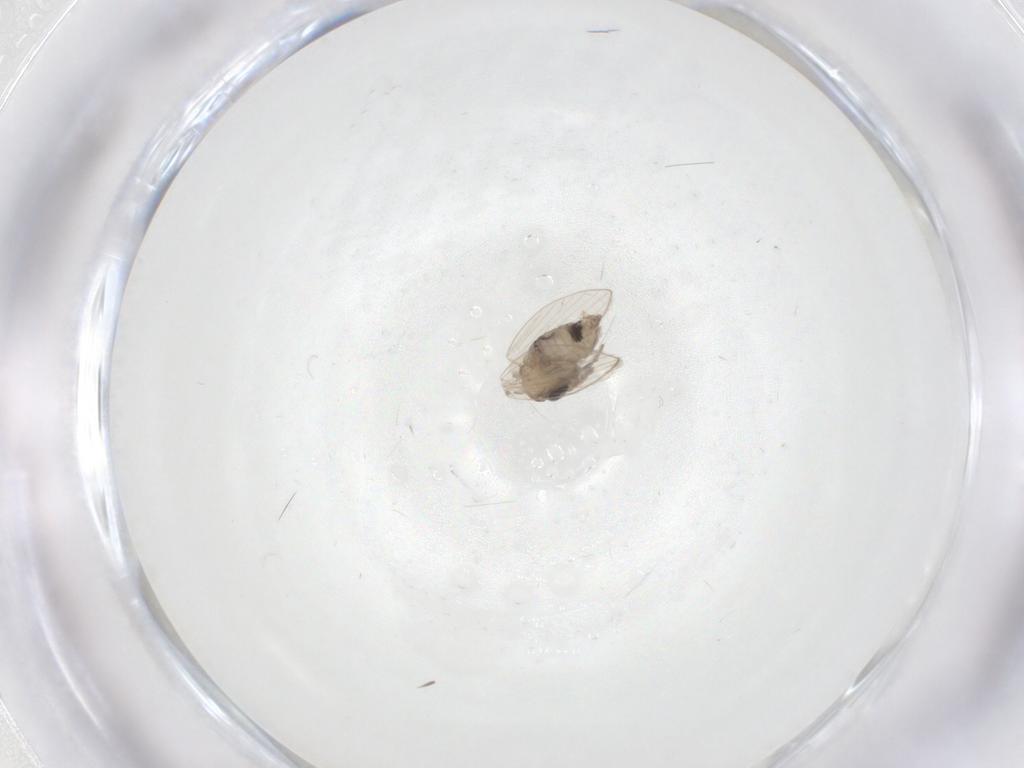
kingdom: Animalia
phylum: Arthropoda
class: Insecta
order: Diptera
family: Psychodidae
